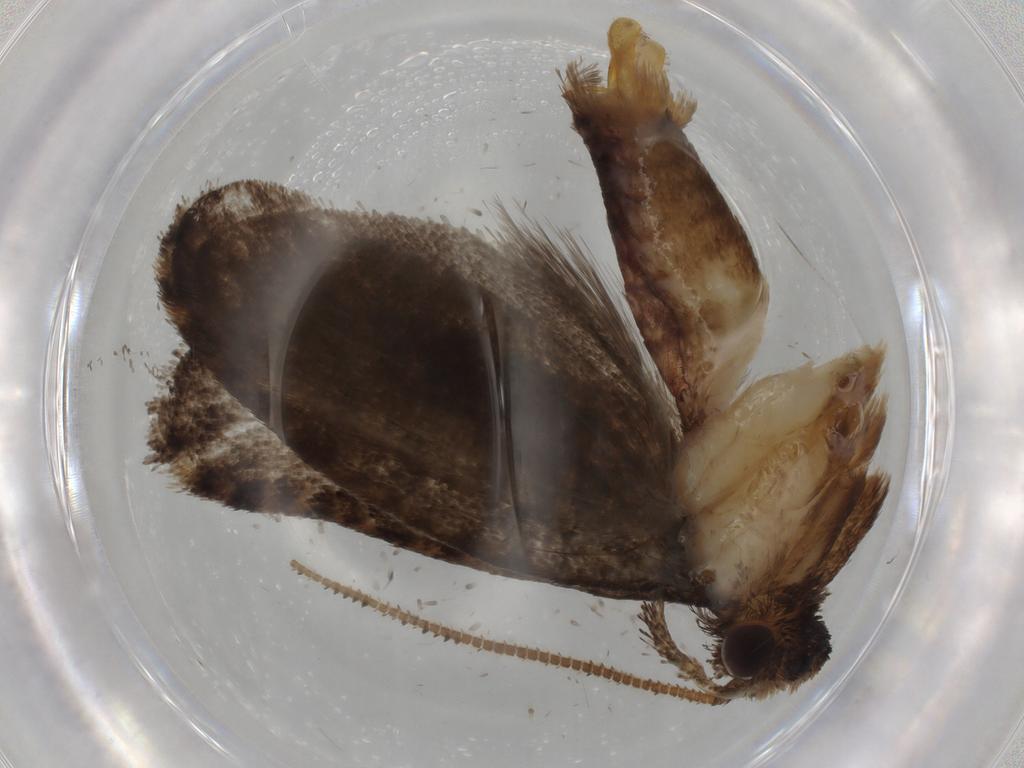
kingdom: Animalia
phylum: Arthropoda
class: Insecta
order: Lepidoptera
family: Tineidae
